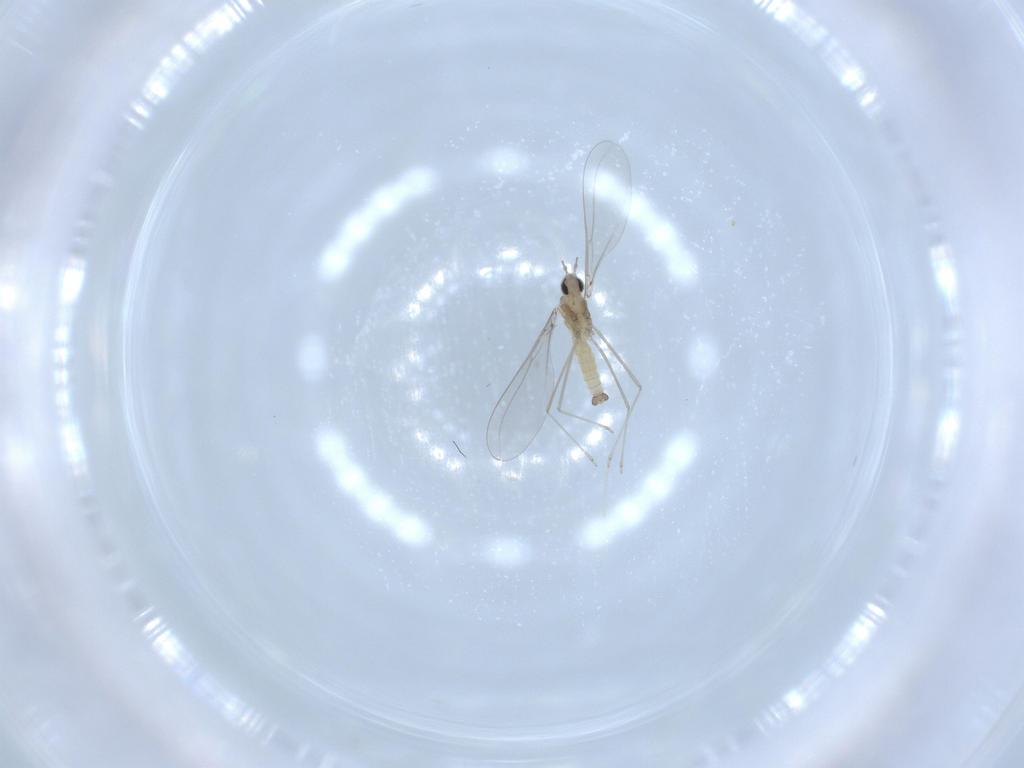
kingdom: Animalia
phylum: Arthropoda
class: Insecta
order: Diptera
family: Cecidomyiidae
